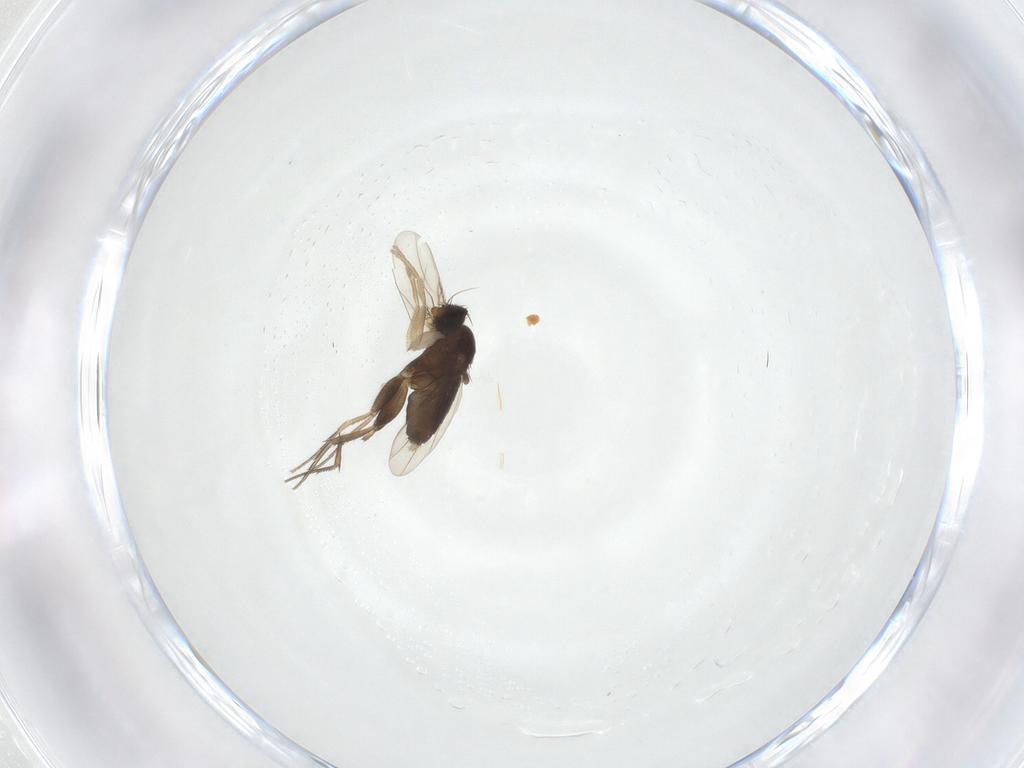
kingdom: Animalia
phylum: Arthropoda
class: Insecta
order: Diptera
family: Phoridae
